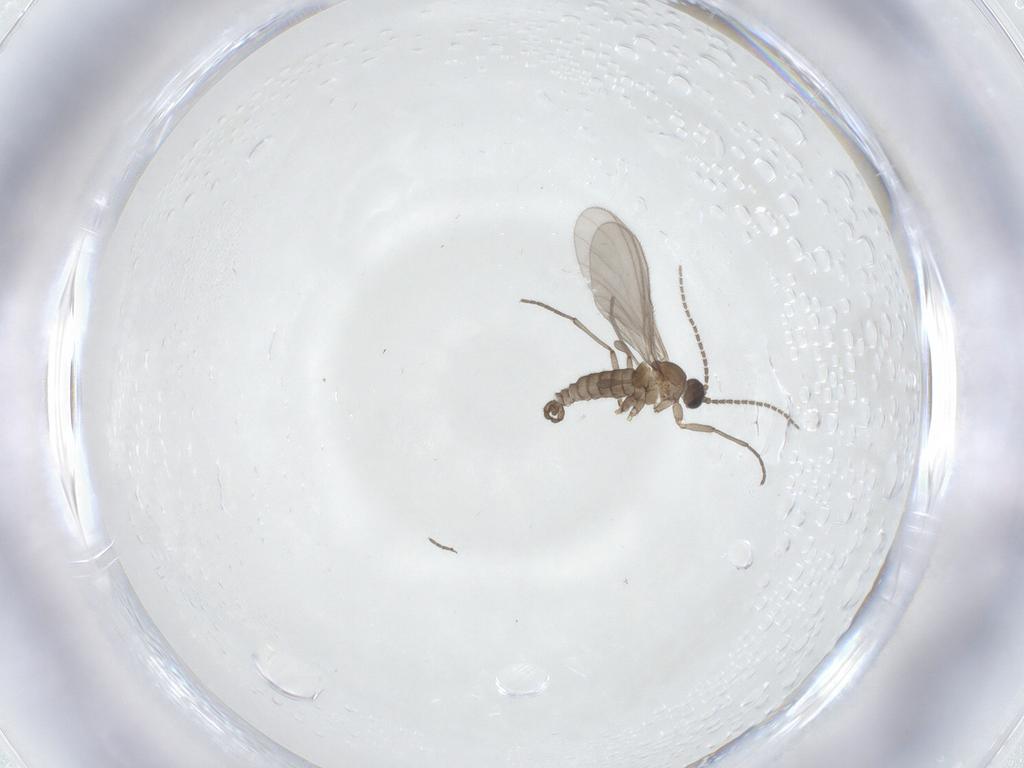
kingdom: Animalia
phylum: Arthropoda
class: Insecta
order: Diptera
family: Sciaridae
